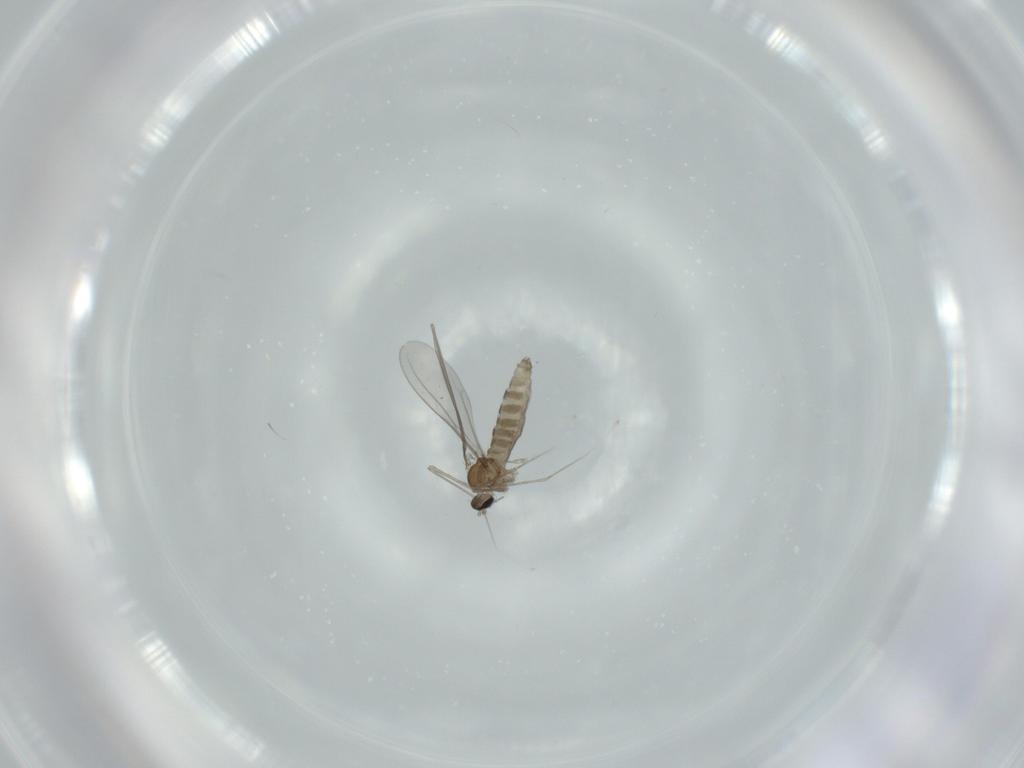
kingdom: Animalia
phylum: Arthropoda
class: Insecta
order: Diptera
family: Cecidomyiidae
